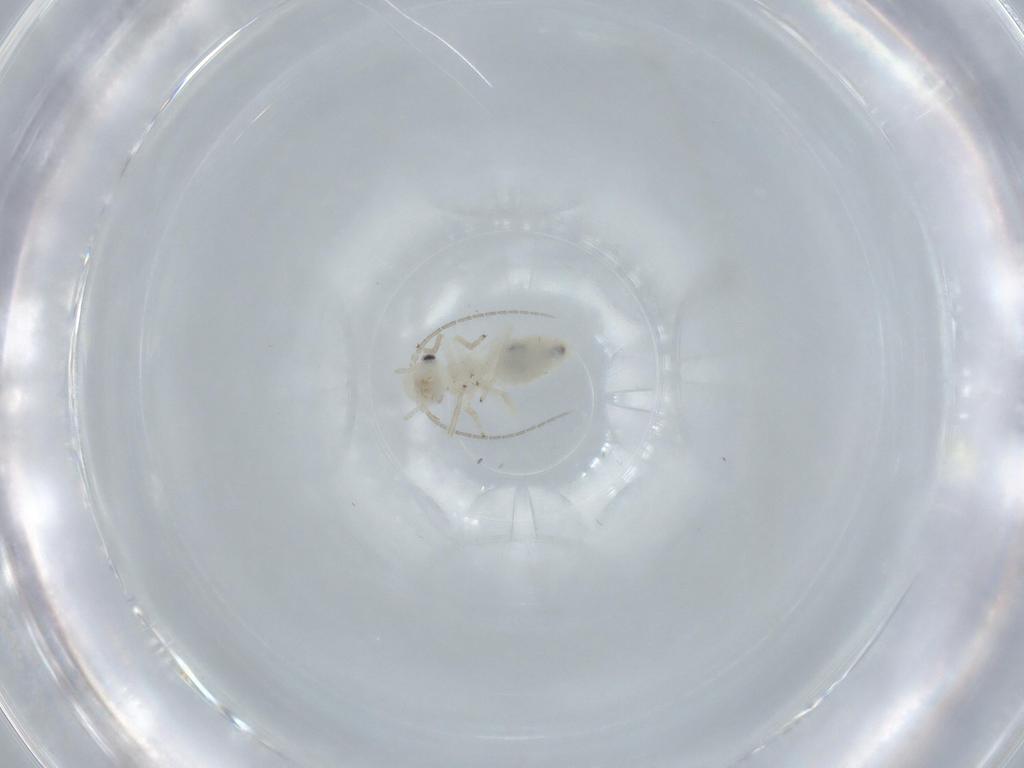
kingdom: Animalia
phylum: Arthropoda
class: Insecta
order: Psocodea
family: Caeciliusidae
